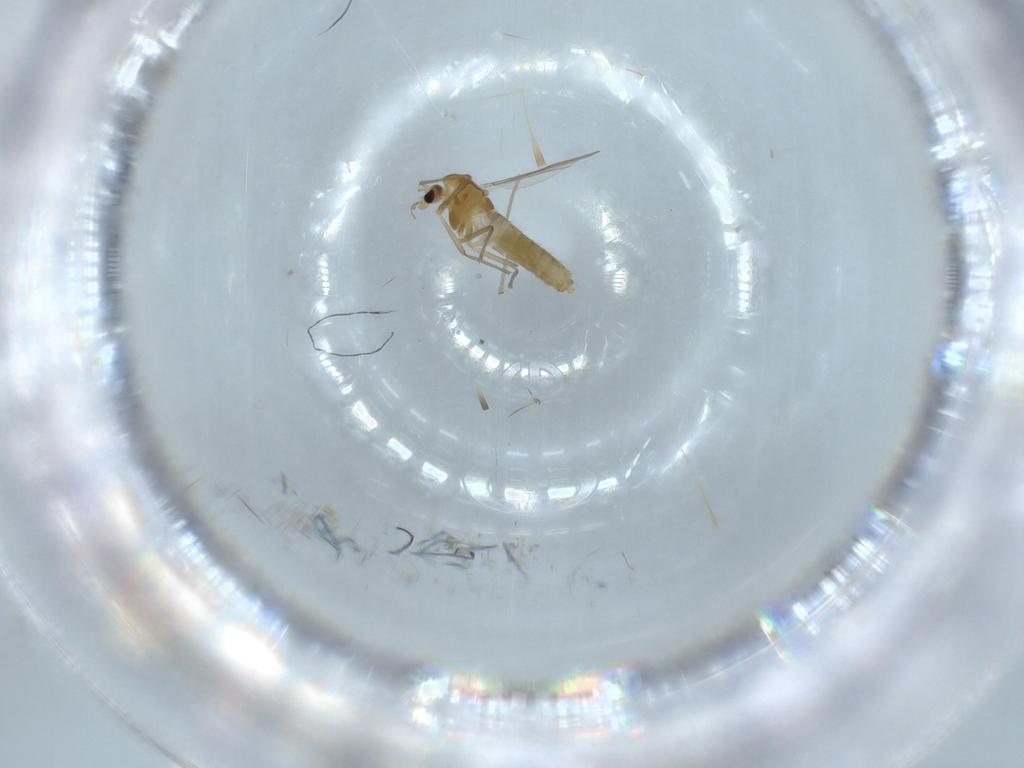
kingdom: Animalia
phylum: Arthropoda
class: Insecta
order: Diptera
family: Chironomidae
